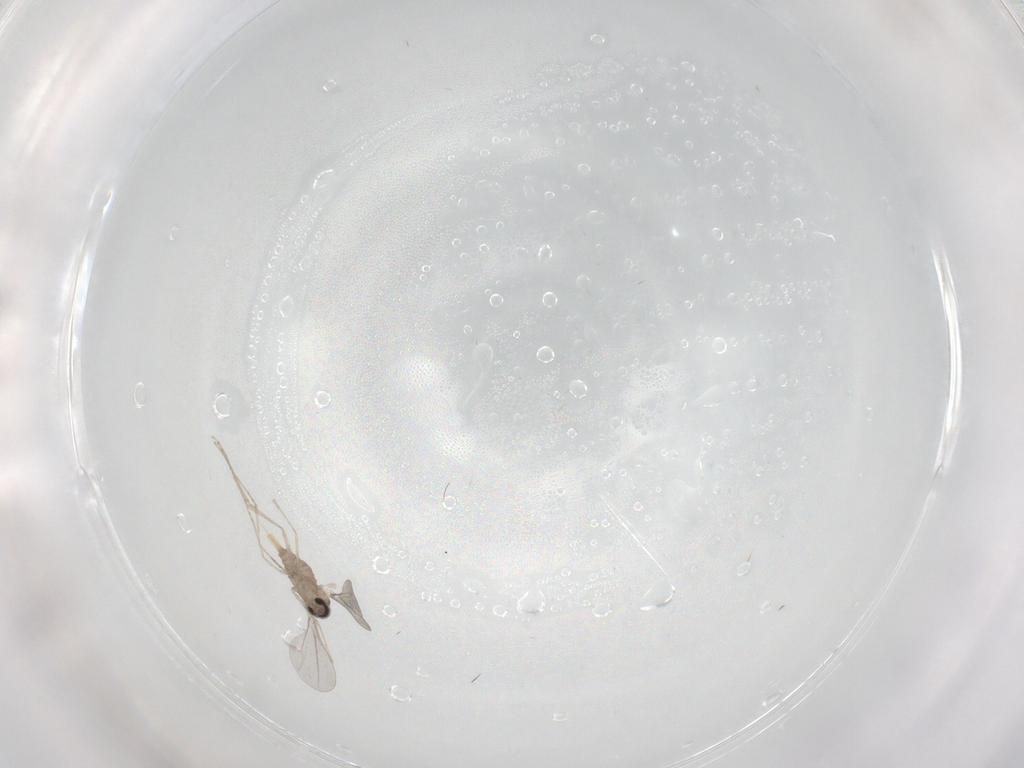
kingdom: Animalia
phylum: Arthropoda
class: Insecta
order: Diptera
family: Cecidomyiidae
